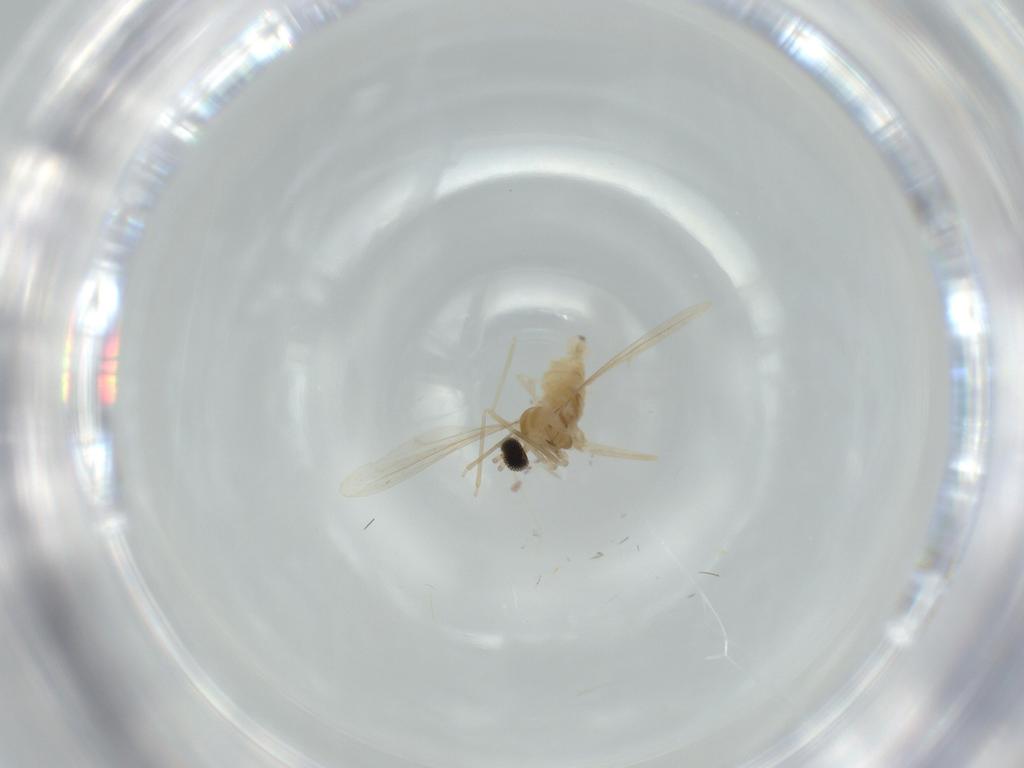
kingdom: Animalia
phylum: Arthropoda
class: Insecta
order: Diptera
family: Cecidomyiidae
